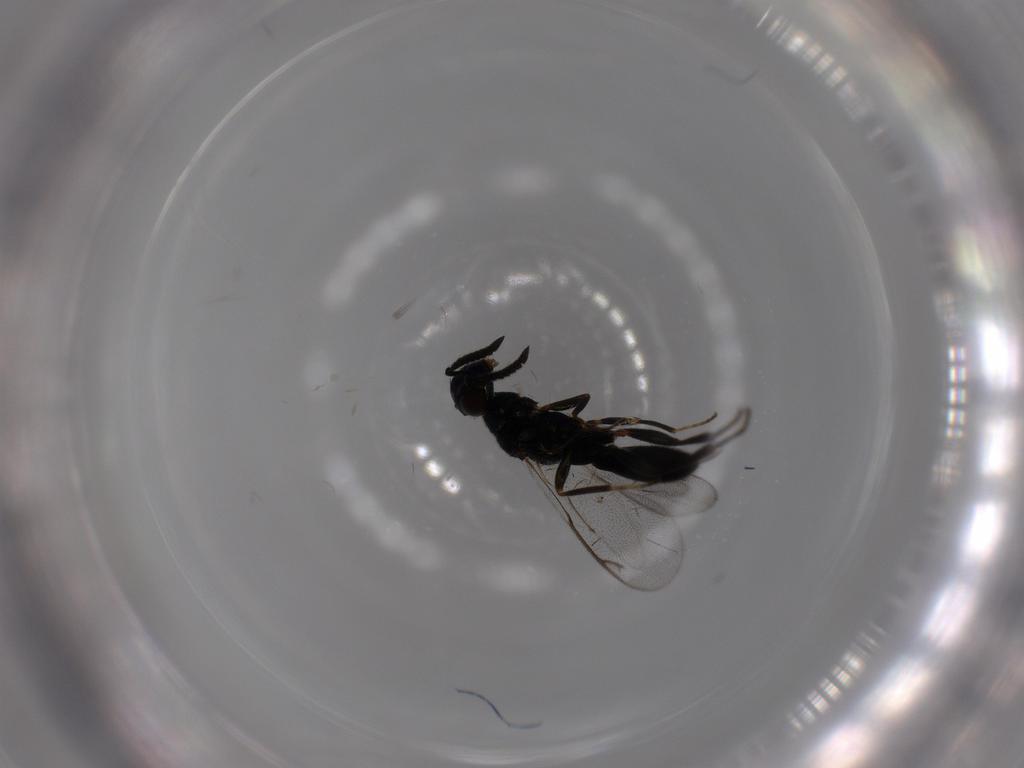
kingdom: Animalia
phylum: Arthropoda
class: Insecta
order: Hymenoptera
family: Cleonyminae
